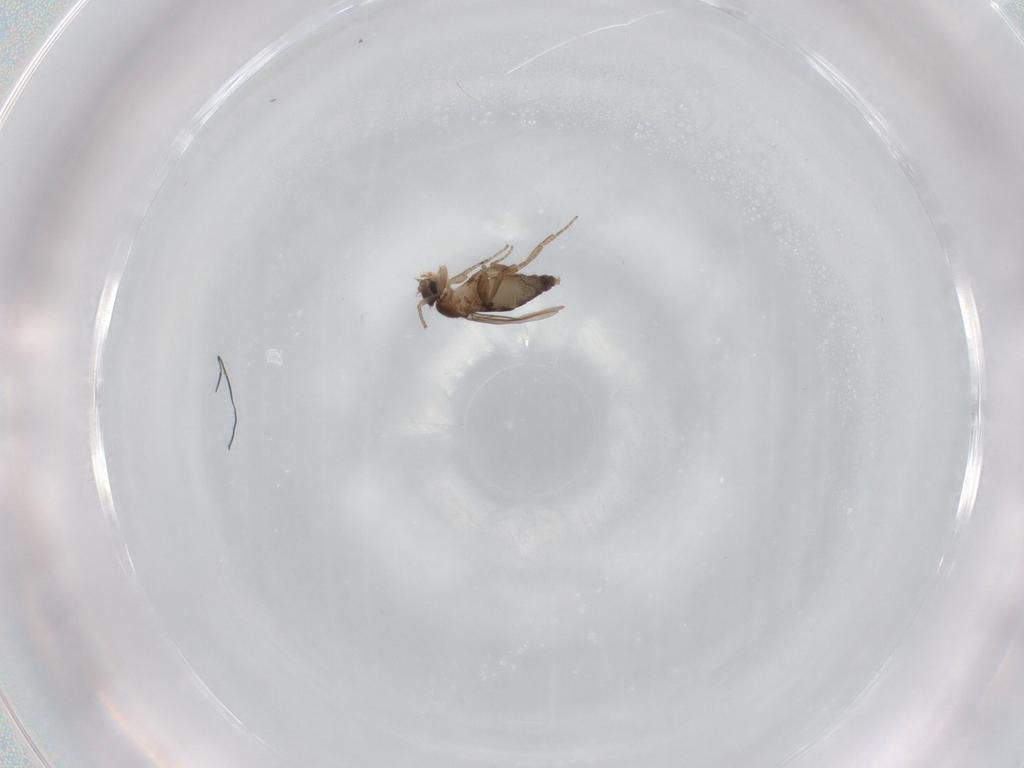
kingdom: Animalia
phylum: Arthropoda
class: Insecta
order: Diptera
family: Phoridae
